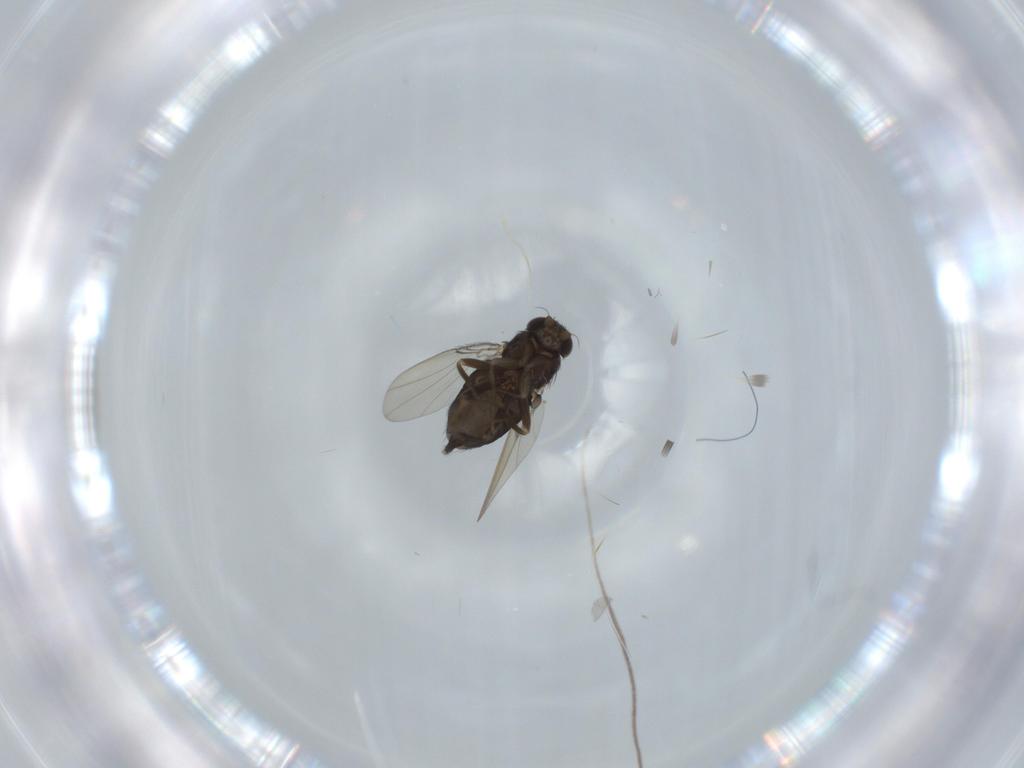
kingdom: Animalia
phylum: Arthropoda
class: Insecta
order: Diptera
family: Phoridae
